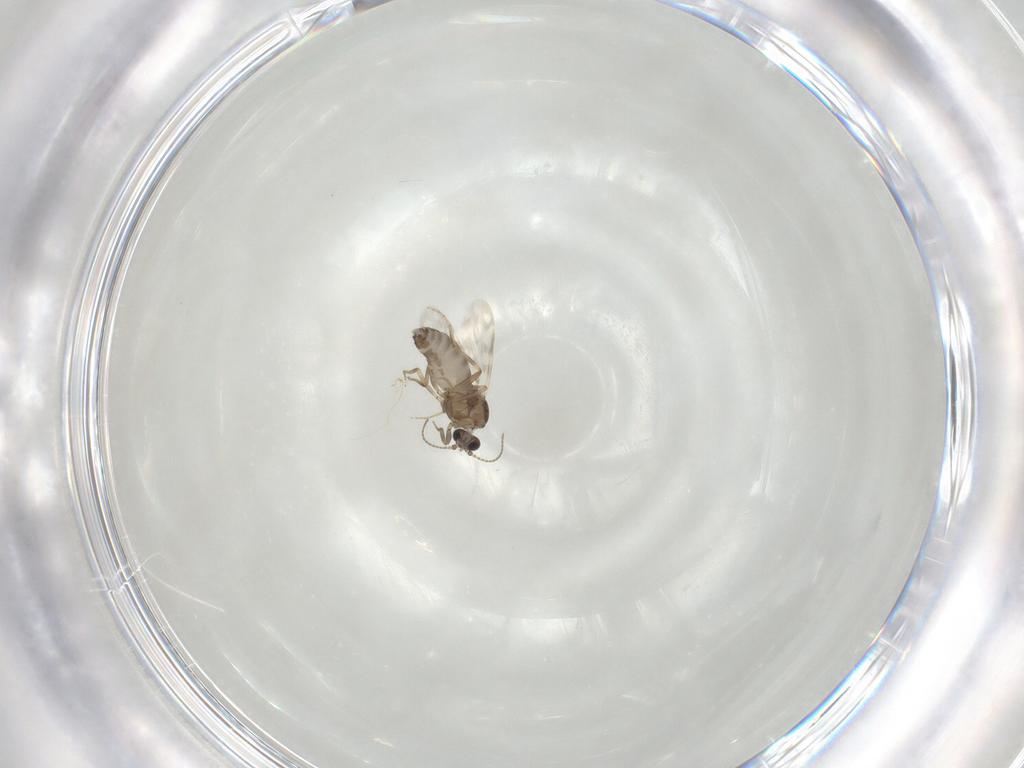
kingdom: Animalia
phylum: Arthropoda
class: Insecta
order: Diptera
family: Ceratopogonidae
